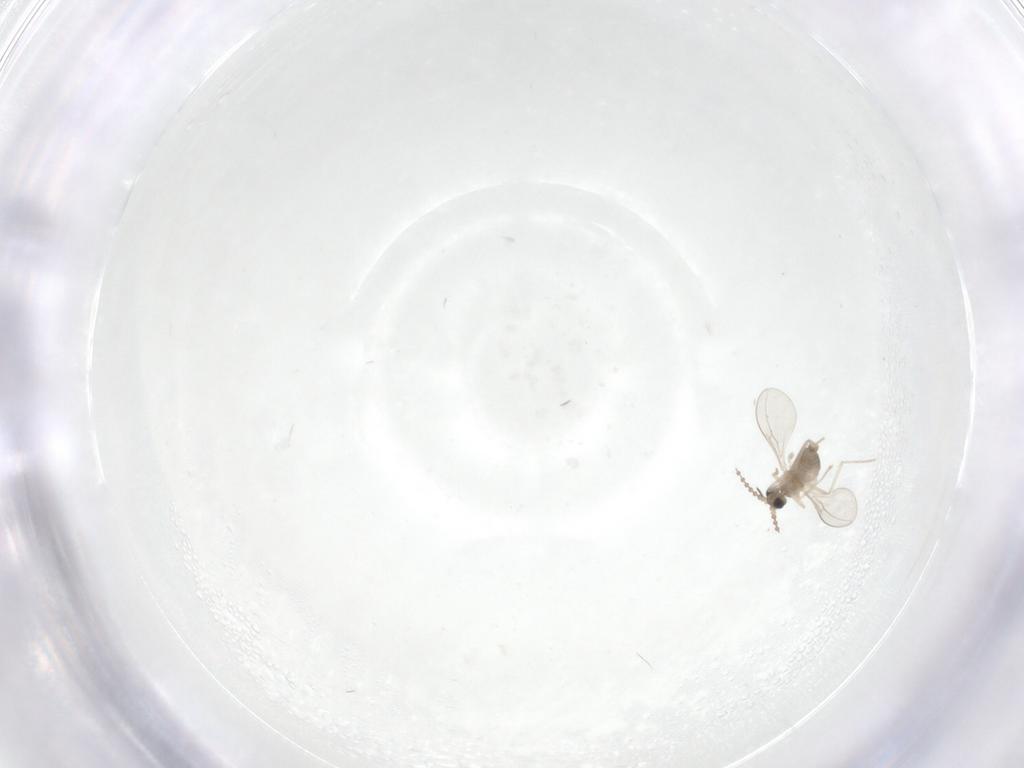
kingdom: Animalia
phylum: Arthropoda
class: Insecta
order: Diptera
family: Cecidomyiidae
